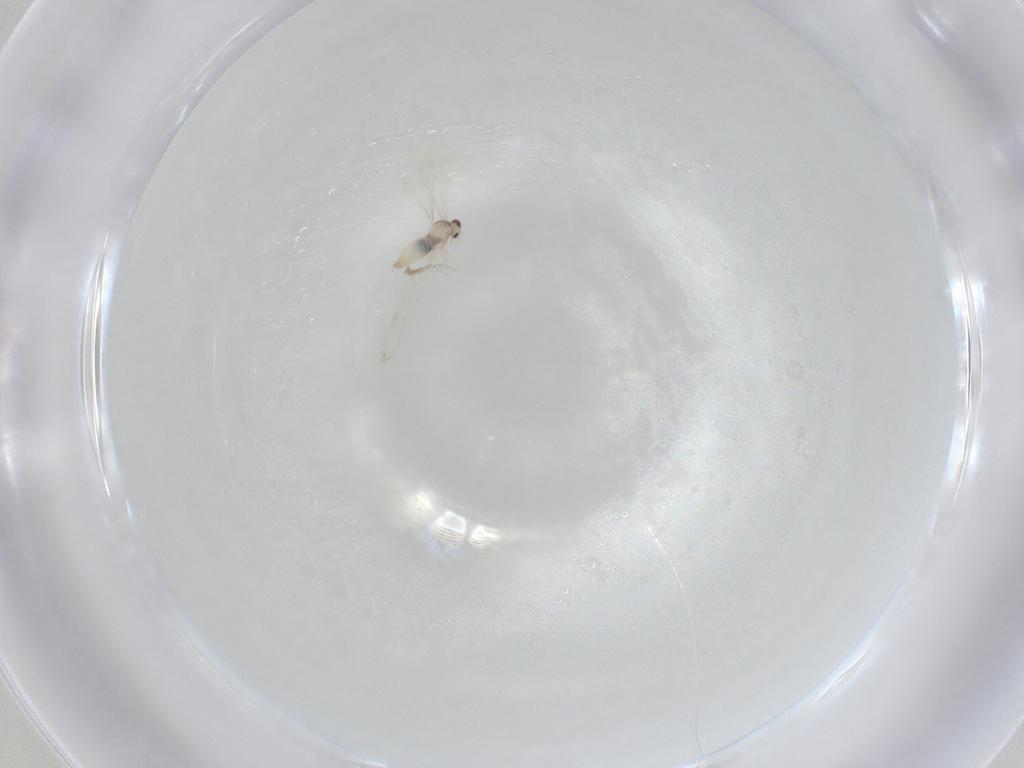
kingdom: Animalia
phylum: Arthropoda
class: Insecta
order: Diptera
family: Cecidomyiidae
